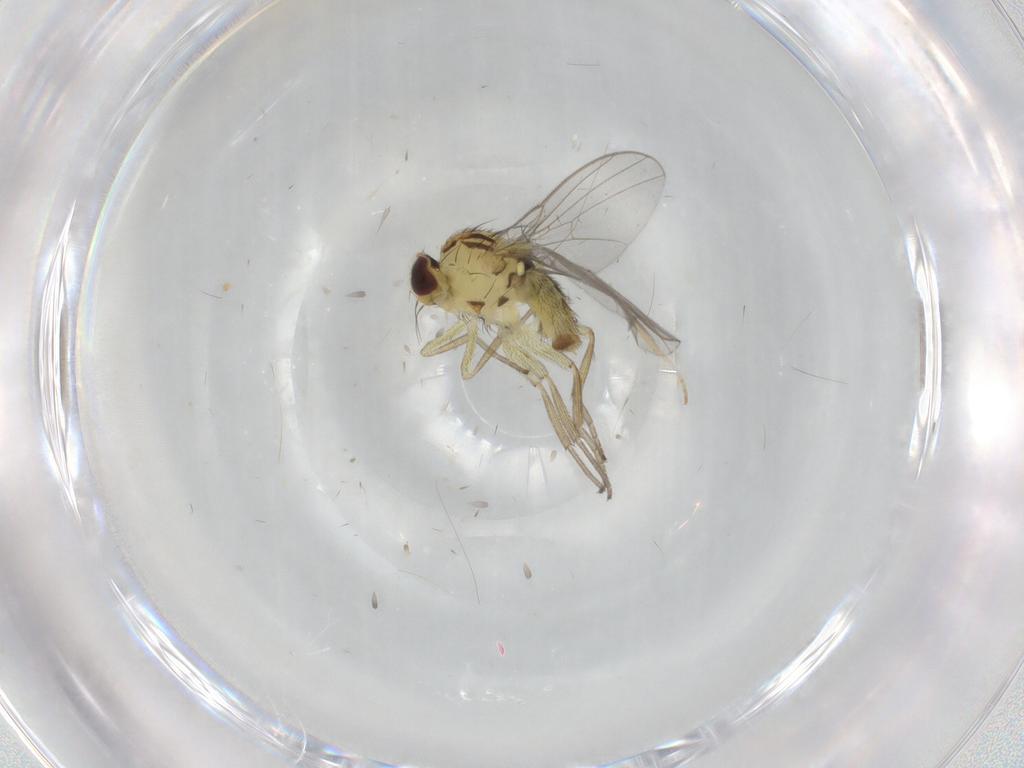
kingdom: Animalia
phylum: Arthropoda
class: Insecta
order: Diptera
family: Agromyzidae
